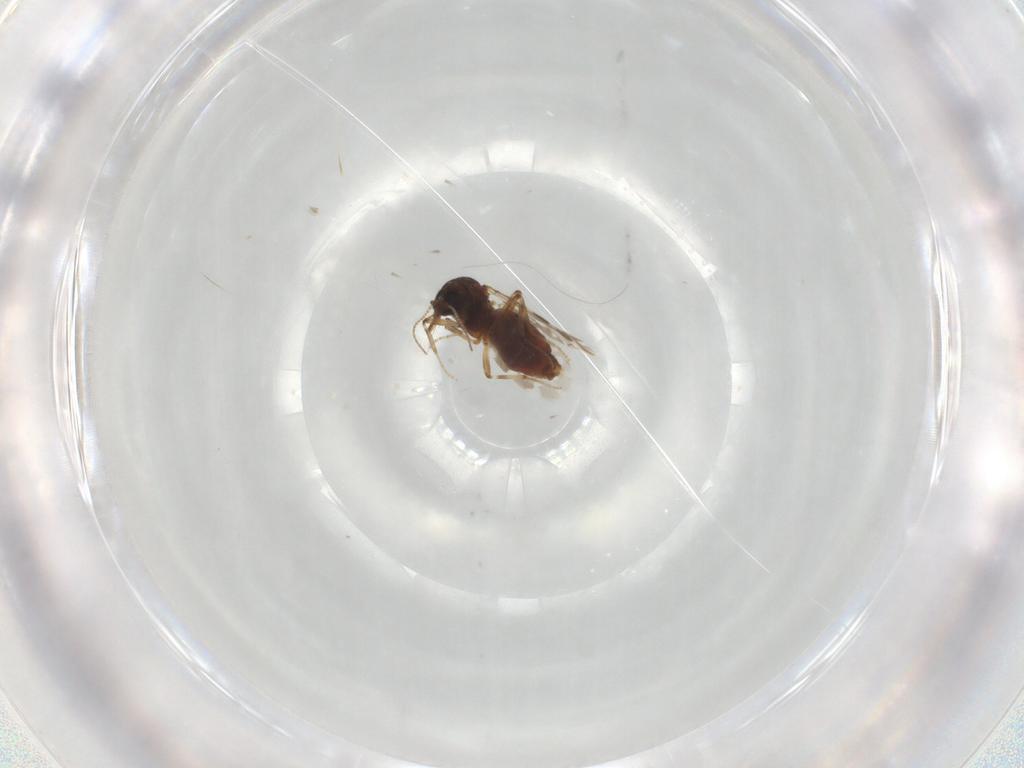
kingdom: Animalia
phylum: Arthropoda
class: Insecta
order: Diptera
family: Ceratopogonidae
